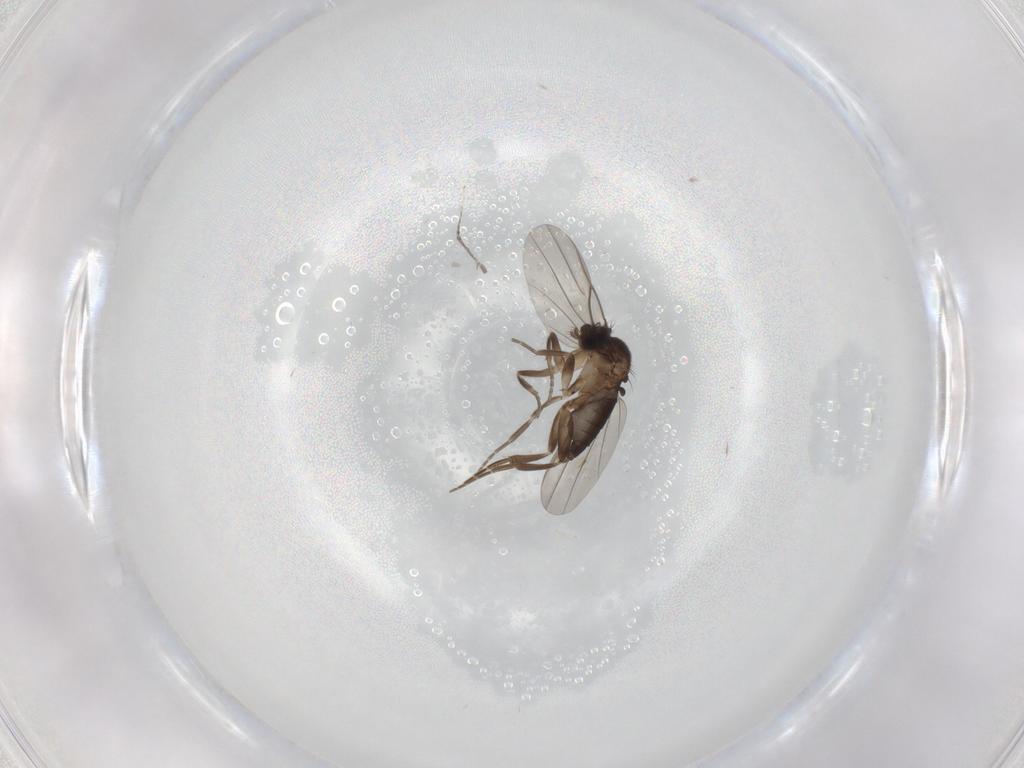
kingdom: Animalia
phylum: Arthropoda
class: Insecta
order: Diptera
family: Cecidomyiidae
